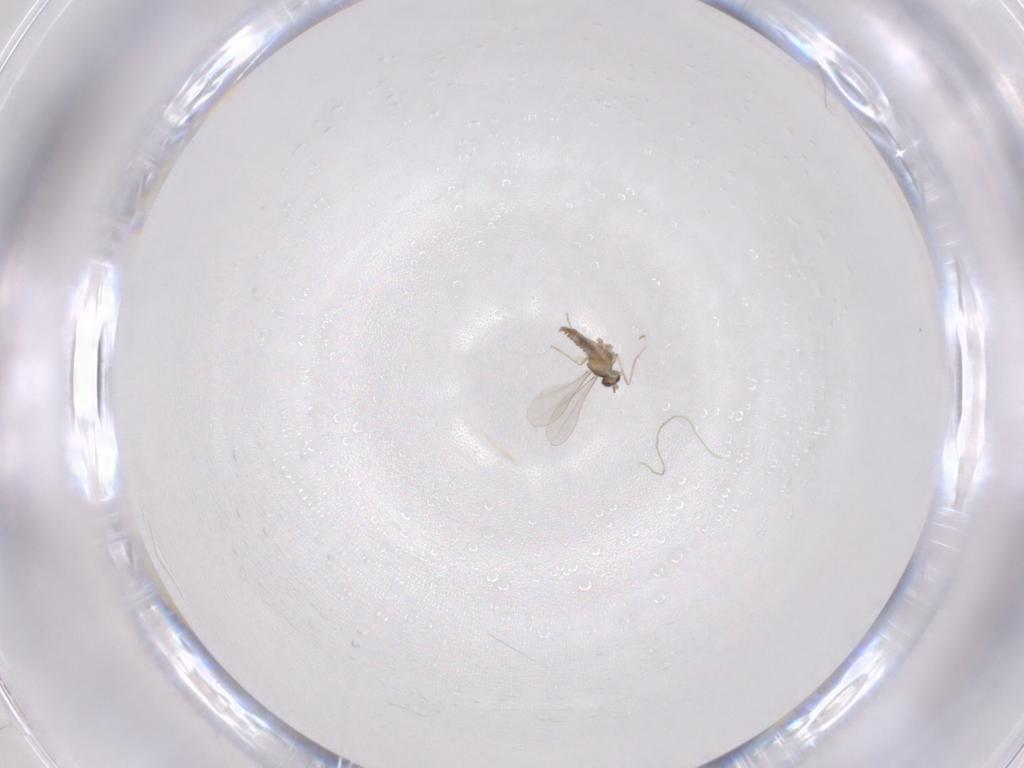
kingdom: Animalia
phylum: Arthropoda
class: Insecta
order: Diptera
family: Cecidomyiidae
